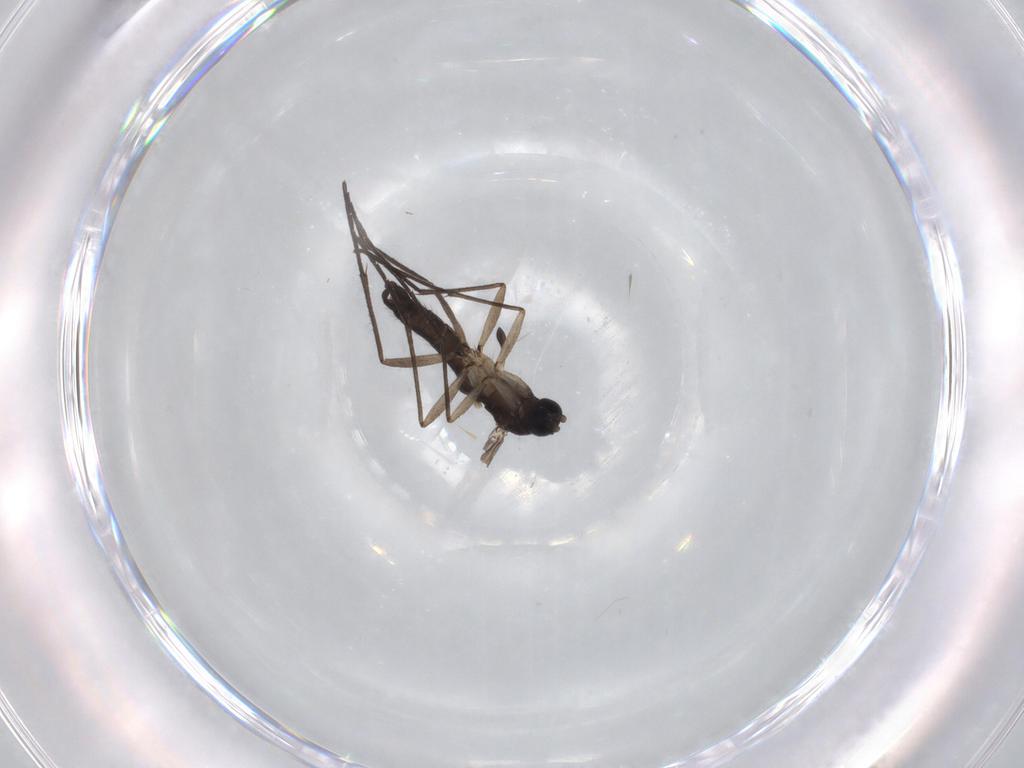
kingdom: Animalia
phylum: Arthropoda
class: Insecta
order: Diptera
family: Sciaridae
